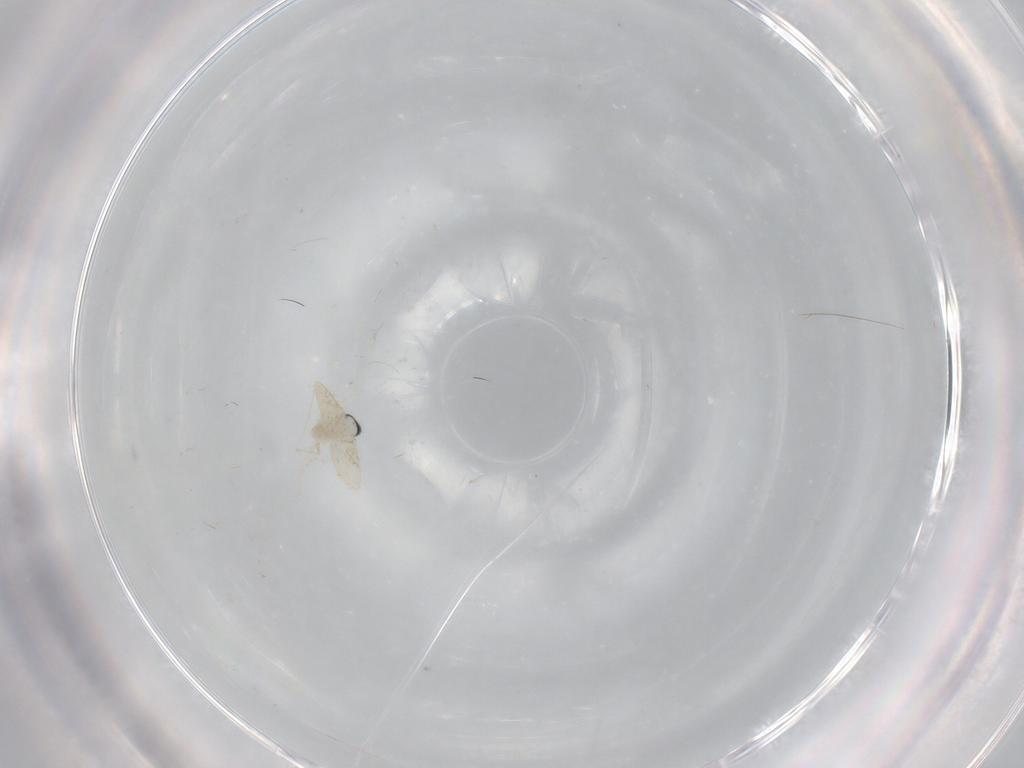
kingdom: Animalia
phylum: Arthropoda
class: Insecta
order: Diptera
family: Cecidomyiidae
